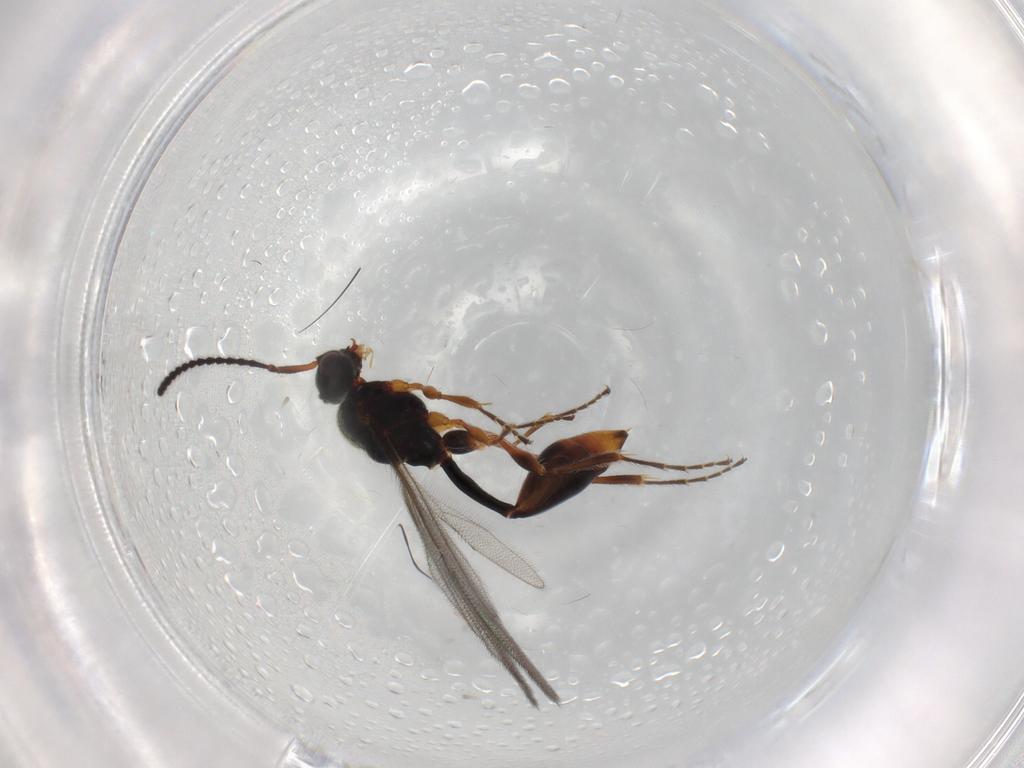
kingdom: Animalia
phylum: Arthropoda
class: Insecta
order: Hymenoptera
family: Diapriidae
